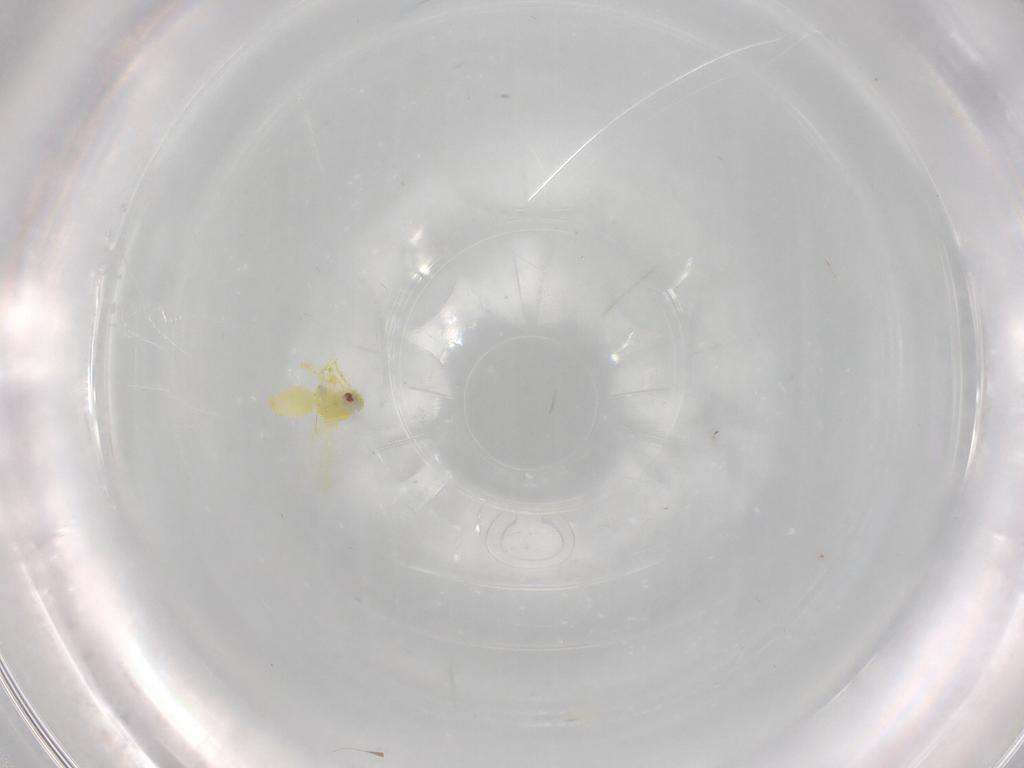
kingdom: Animalia
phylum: Arthropoda
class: Insecta
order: Hemiptera
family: Aleyrodidae
